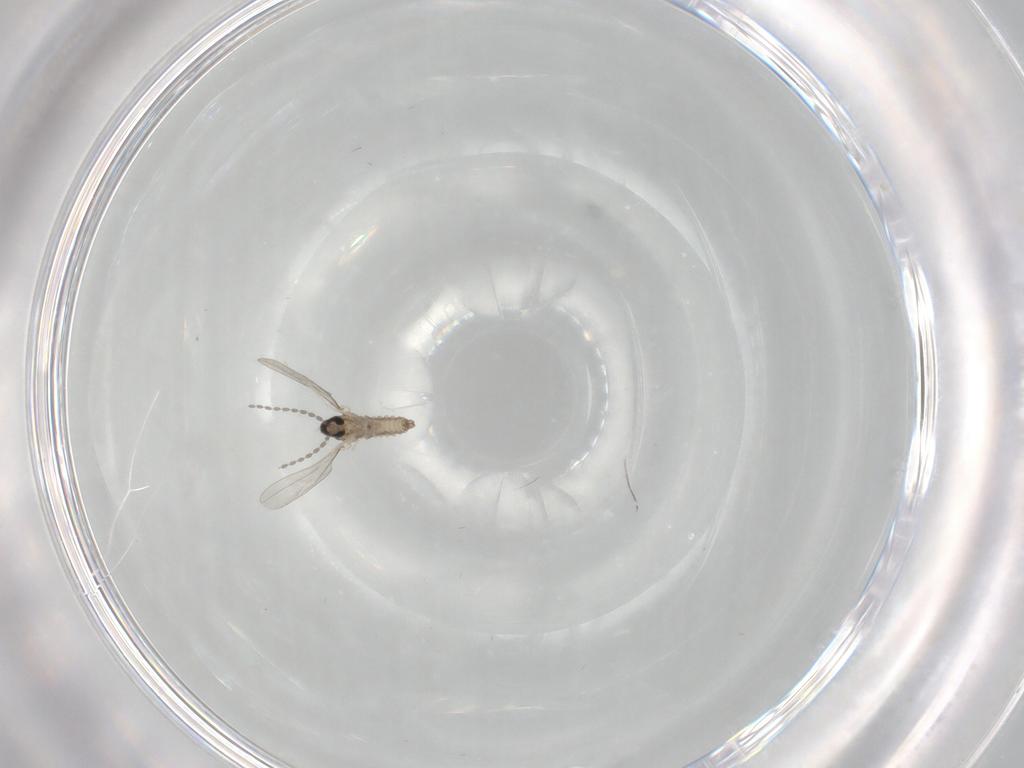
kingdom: Animalia
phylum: Arthropoda
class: Insecta
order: Diptera
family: Cecidomyiidae
